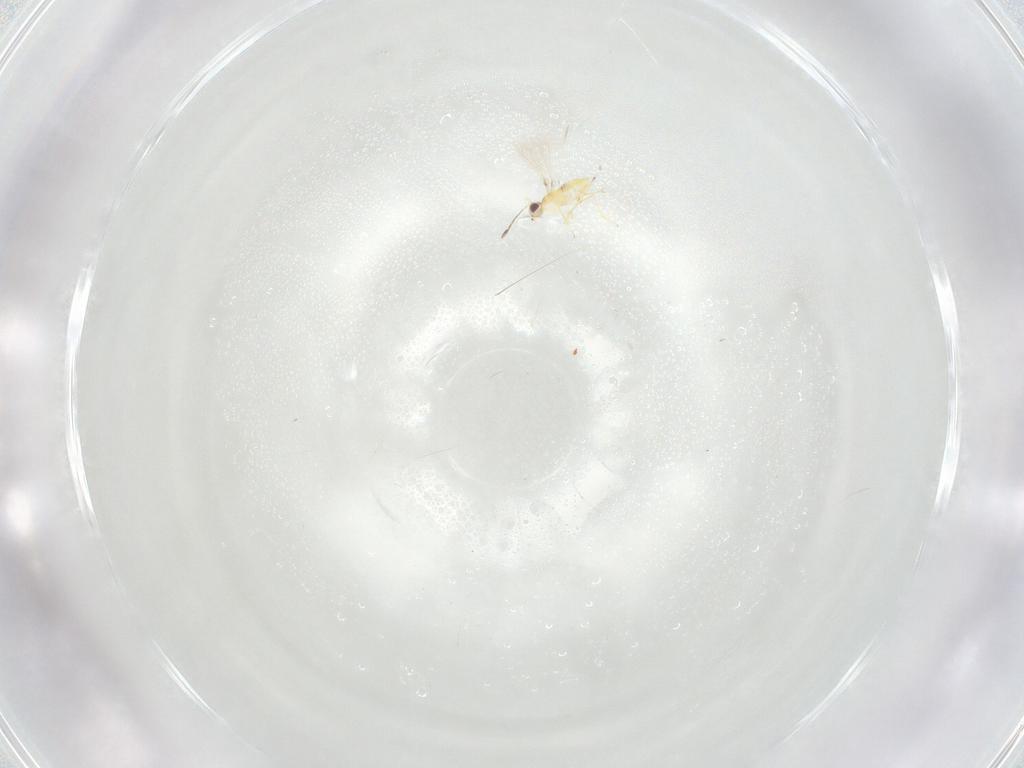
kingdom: Animalia
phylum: Arthropoda
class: Insecta
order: Hymenoptera
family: Mymaridae
